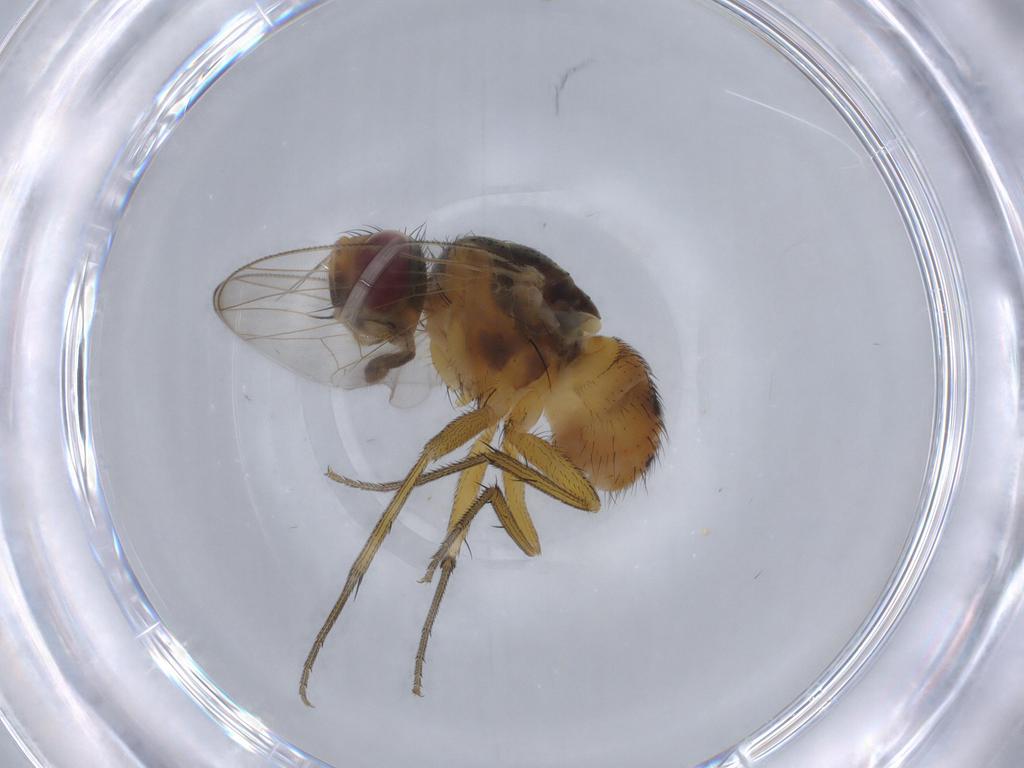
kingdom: Animalia
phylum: Arthropoda
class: Insecta
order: Diptera
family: Muscidae
